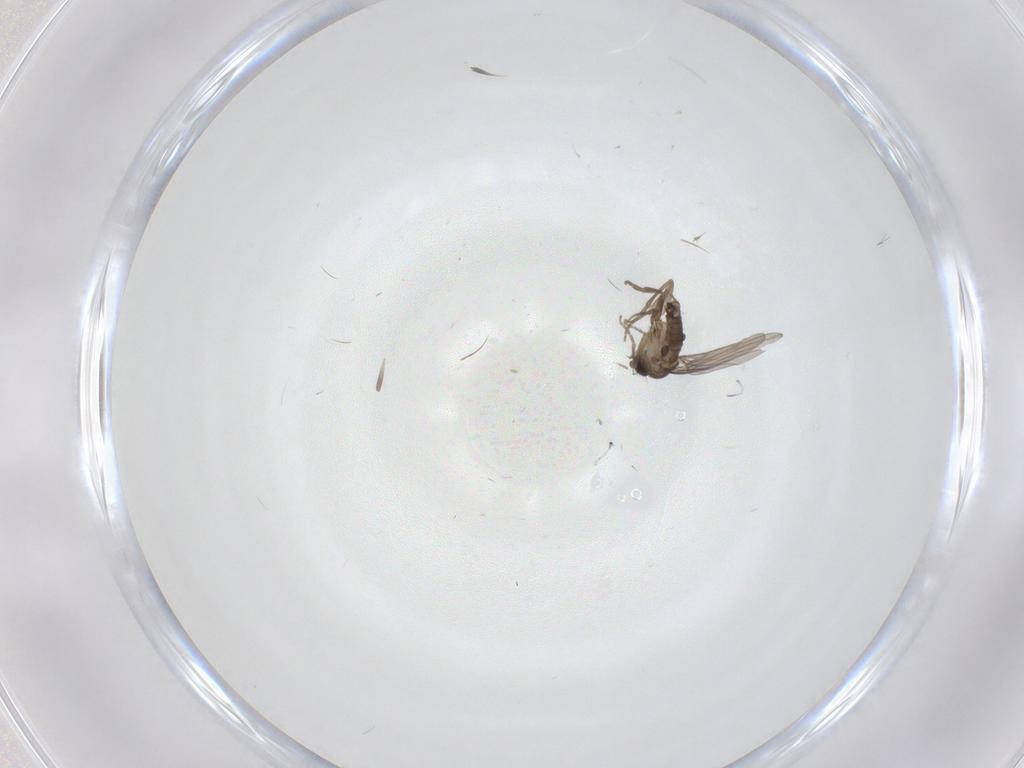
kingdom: Animalia
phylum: Arthropoda
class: Insecta
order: Diptera
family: Phoridae
